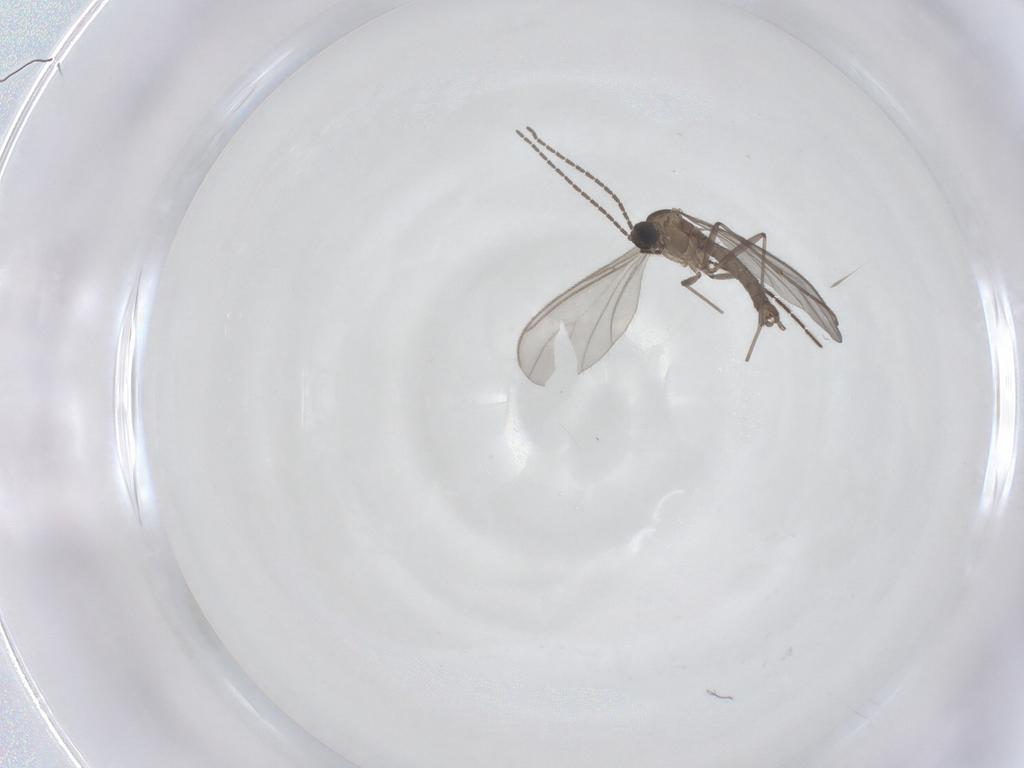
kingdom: Animalia
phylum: Arthropoda
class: Insecta
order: Diptera
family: Sciaridae
